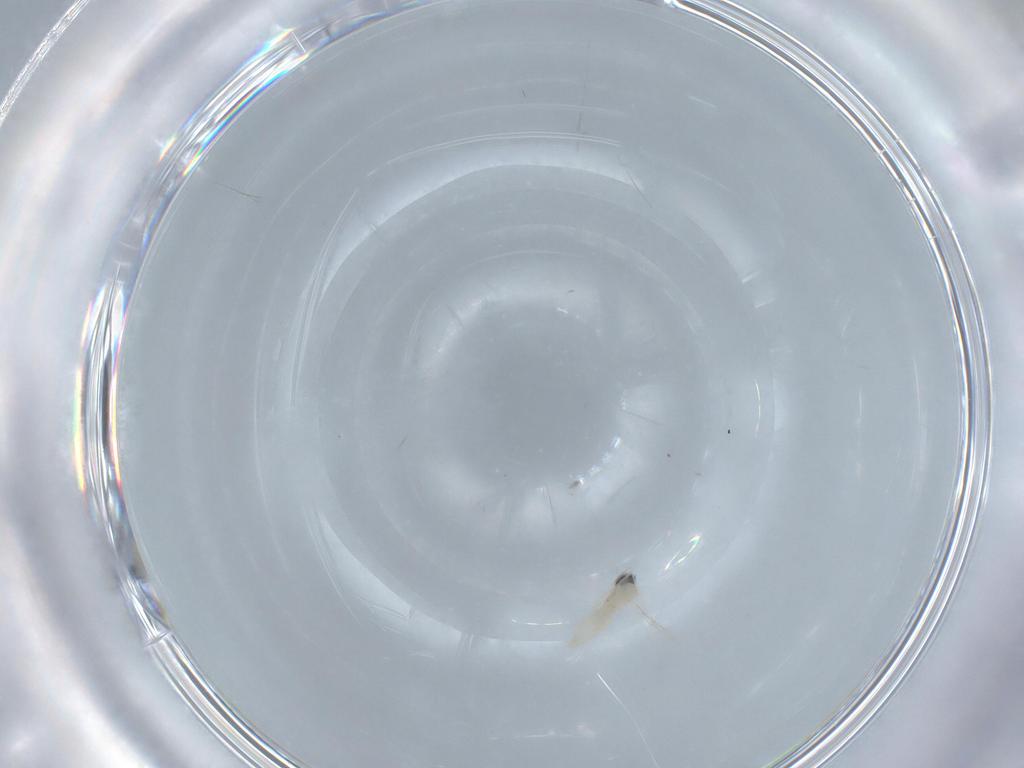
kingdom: Animalia
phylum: Arthropoda
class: Insecta
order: Diptera
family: Cecidomyiidae
